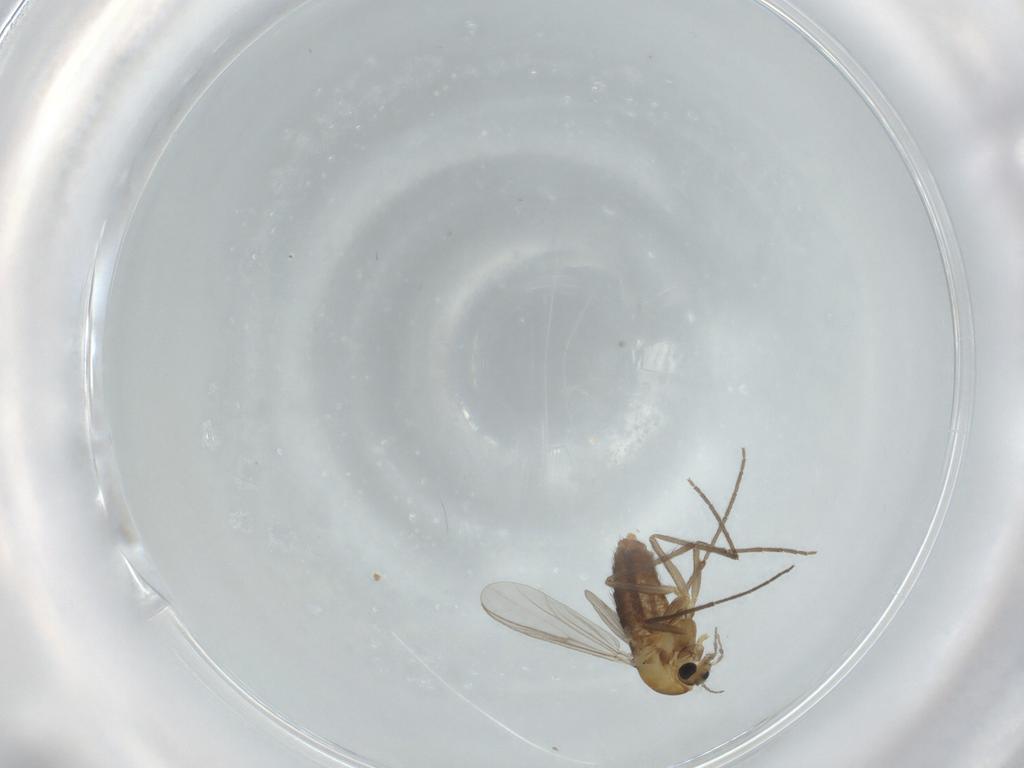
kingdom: Animalia
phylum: Arthropoda
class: Insecta
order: Diptera
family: Chironomidae
